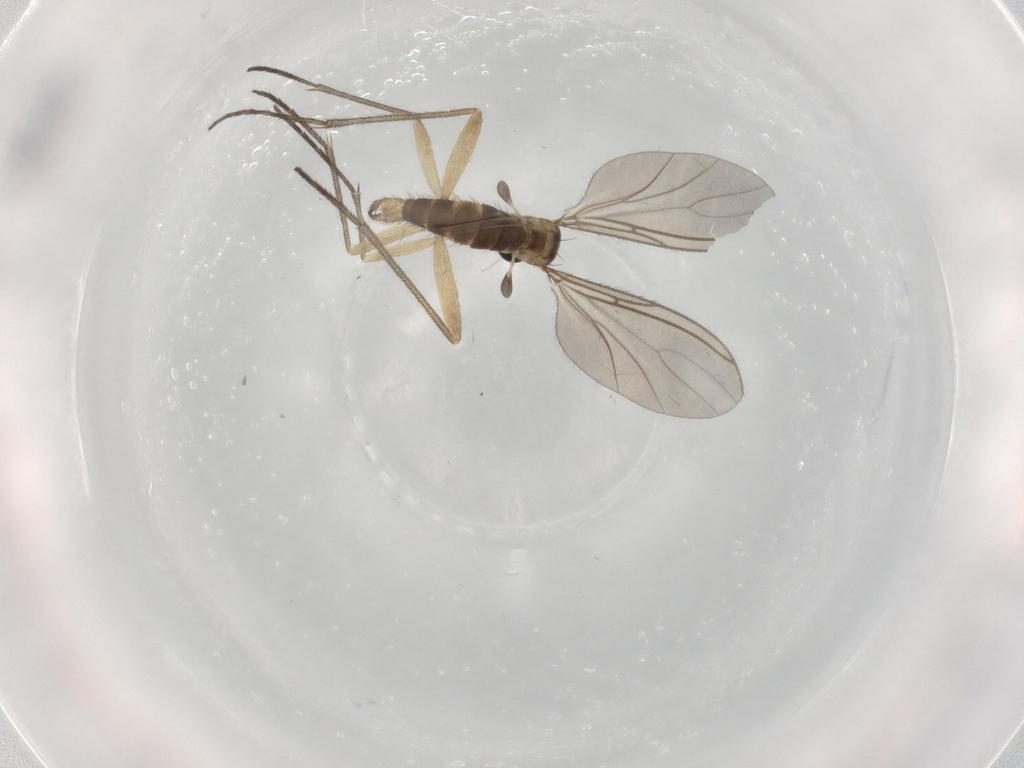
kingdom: Animalia
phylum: Arthropoda
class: Insecta
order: Diptera
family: Sciaridae
